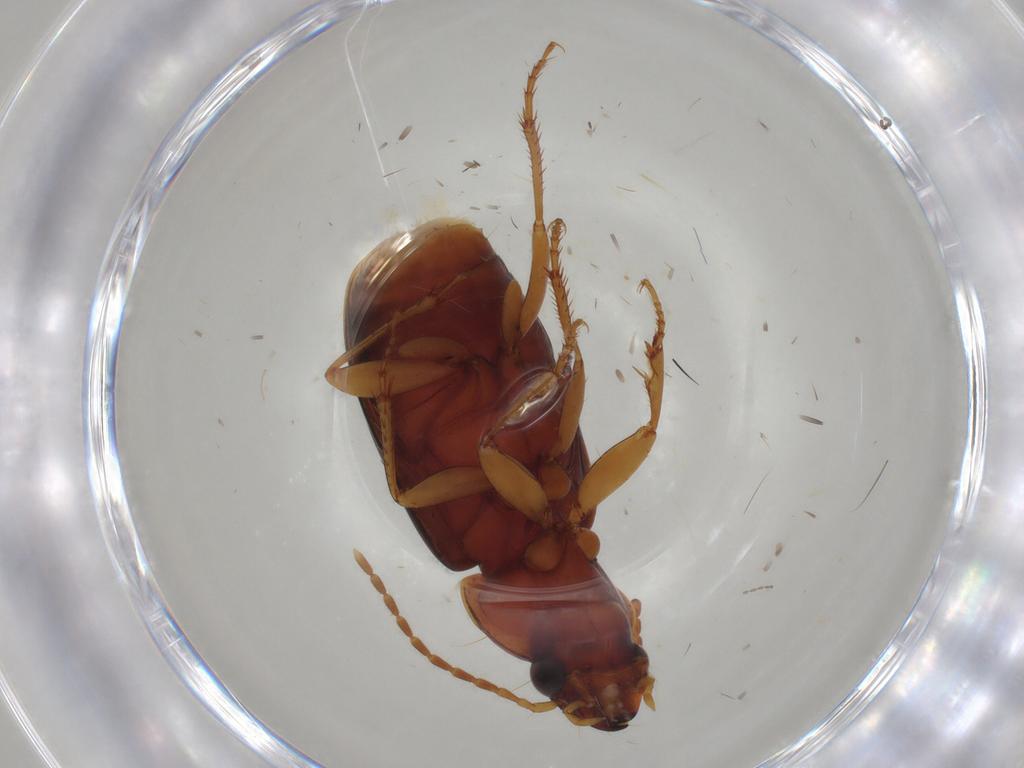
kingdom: Animalia
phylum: Arthropoda
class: Insecta
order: Coleoptera
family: Carabidae
